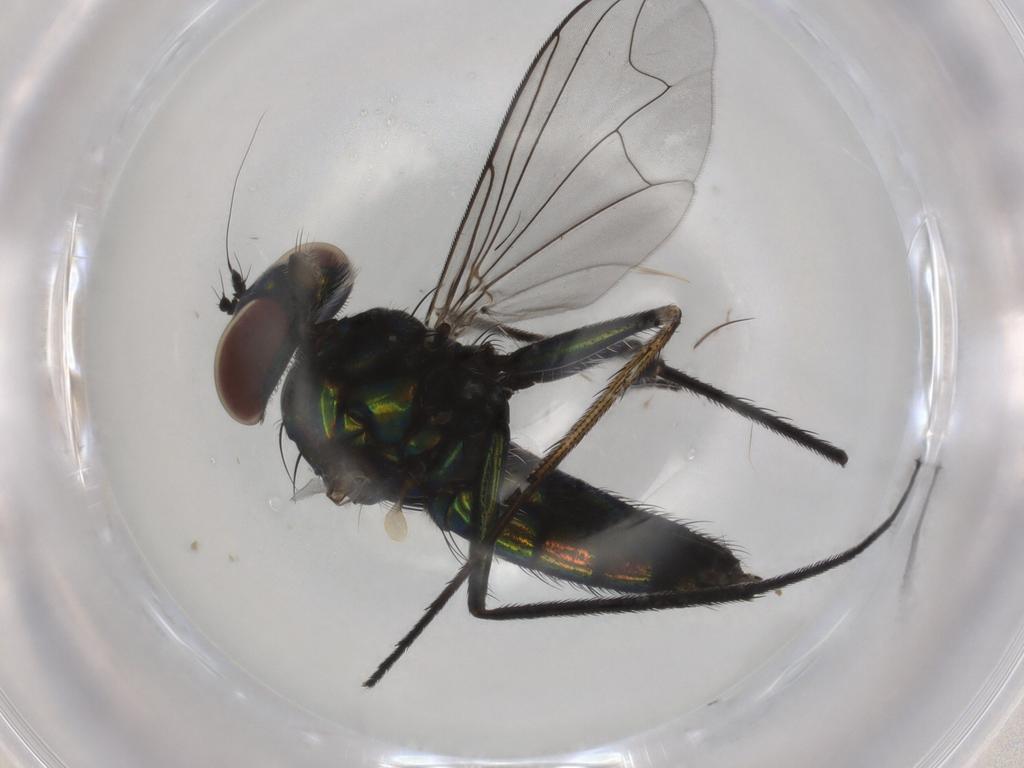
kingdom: Animalia
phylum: Arthropoda
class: Insecta
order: Diptera
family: Dolichopodidae
